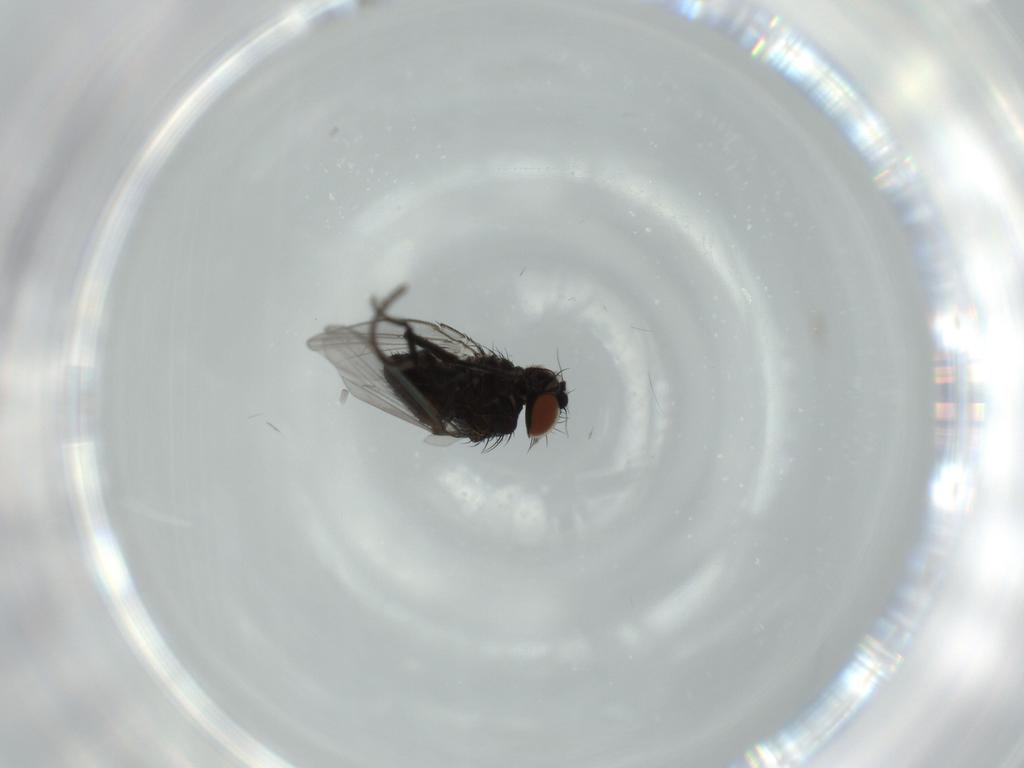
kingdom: Animalia
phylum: Arthropoda
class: Insecta
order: Diptera
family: Milichiidae
